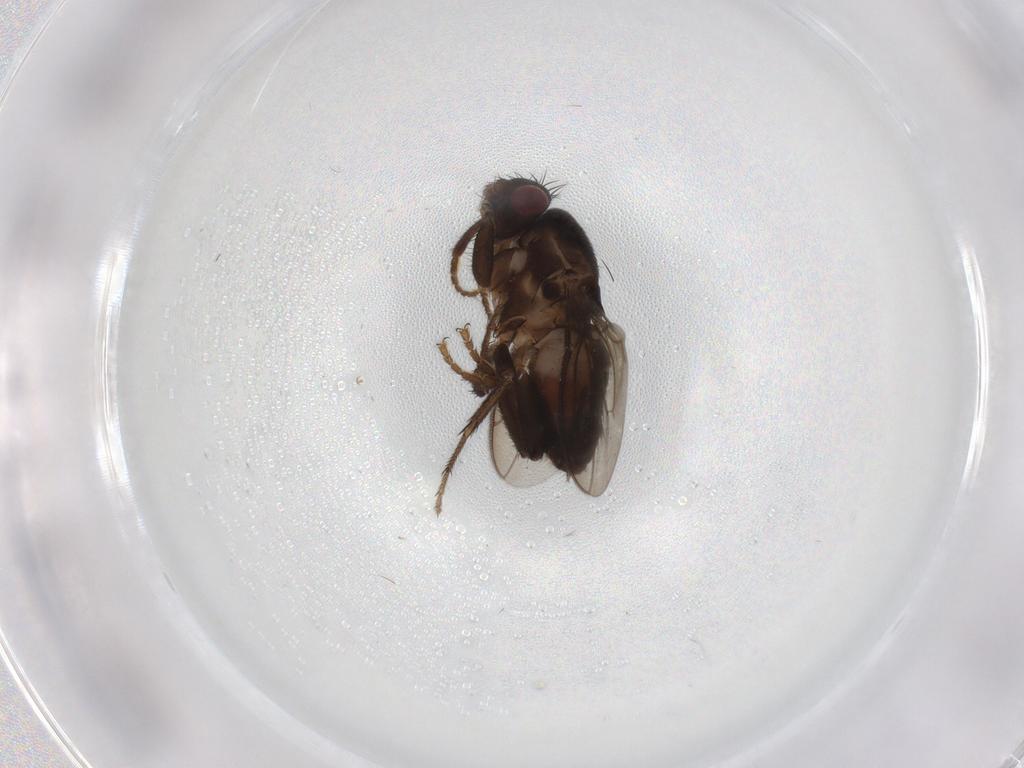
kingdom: Animalia
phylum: Arthropoda
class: Insecta
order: Diptera
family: Keroplatidae
